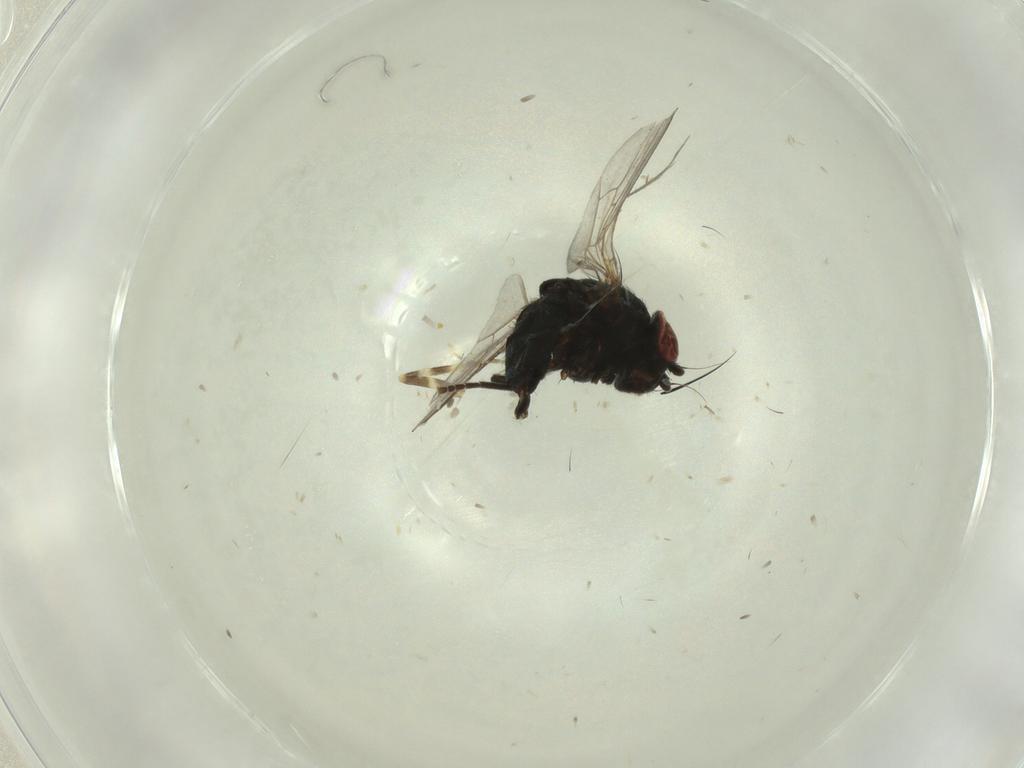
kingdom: Animalia
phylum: Arthropoda
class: Insecta
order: Diptera
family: Agromyzidae
